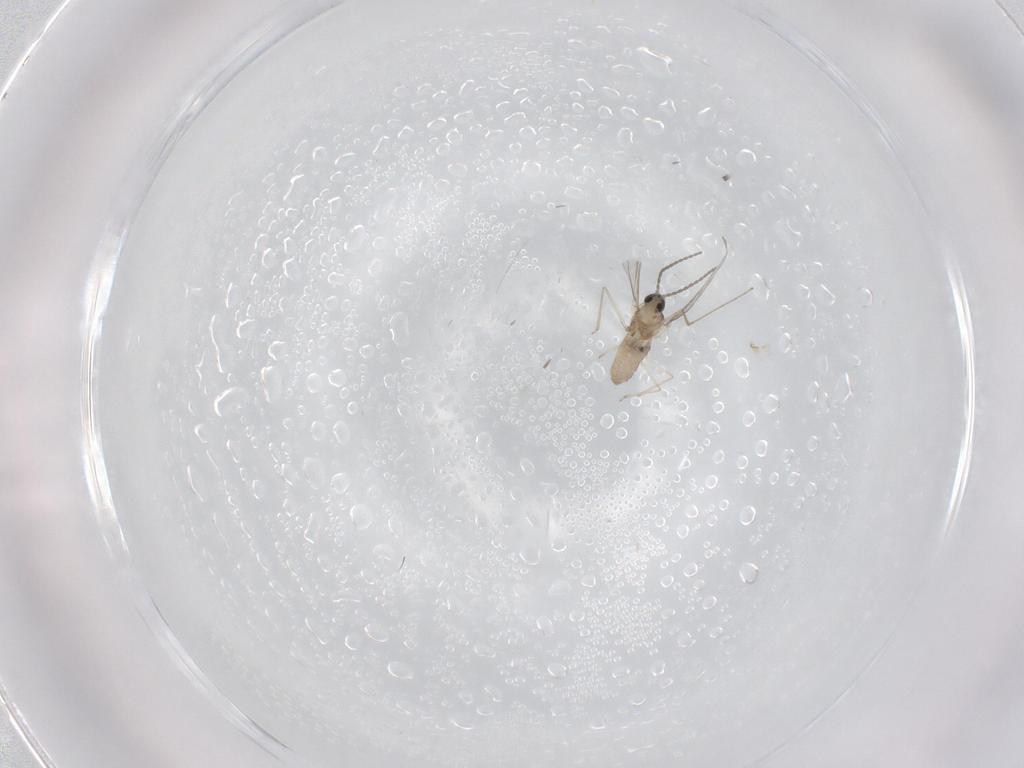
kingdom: Animalia
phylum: Arthropoda
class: Insecta
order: Diptera
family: Cecidomyiidae
